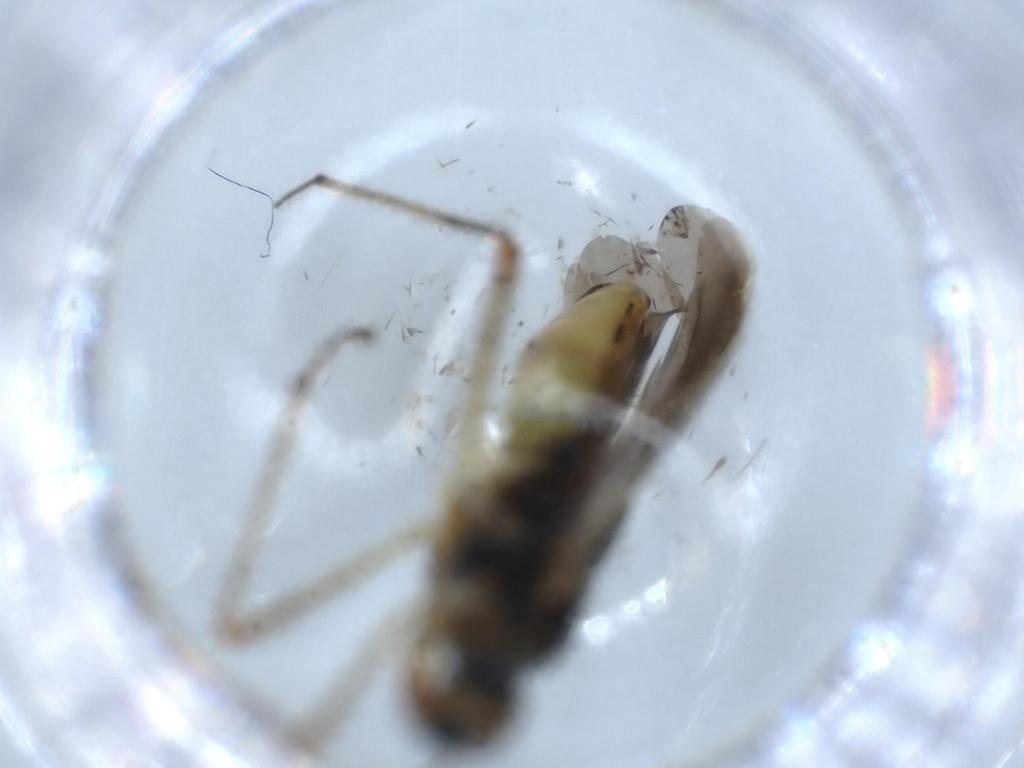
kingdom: Animalia
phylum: Arthropoda
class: Insecta
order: Hemiptera
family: Miridae
